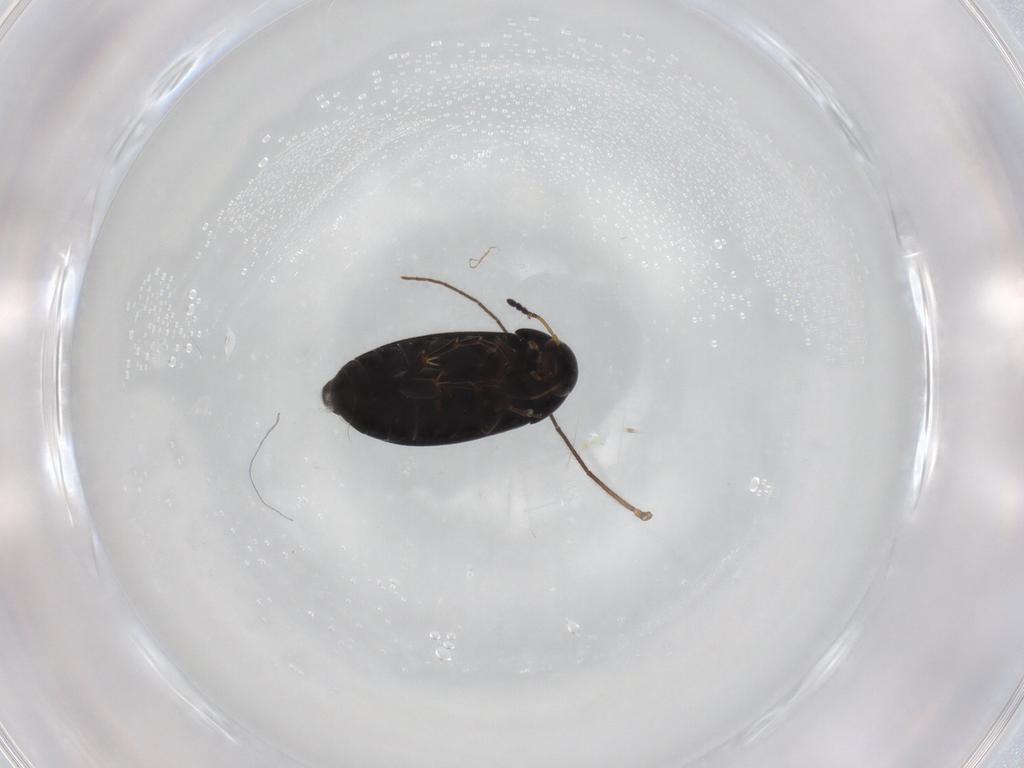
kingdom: Animalia
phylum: Arthropoda
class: Insecta
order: Coleoptera
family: Scraptiidae
